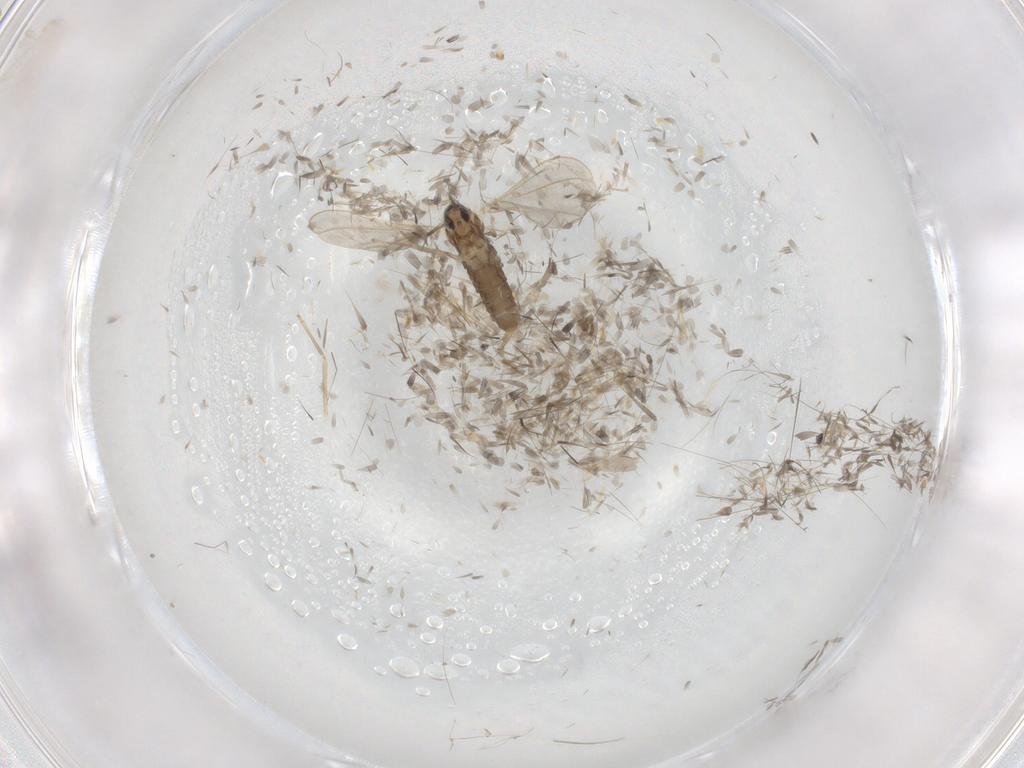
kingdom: Animalia
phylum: Arthropoda
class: Insecta
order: Diptera
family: Cecidomyiidae
